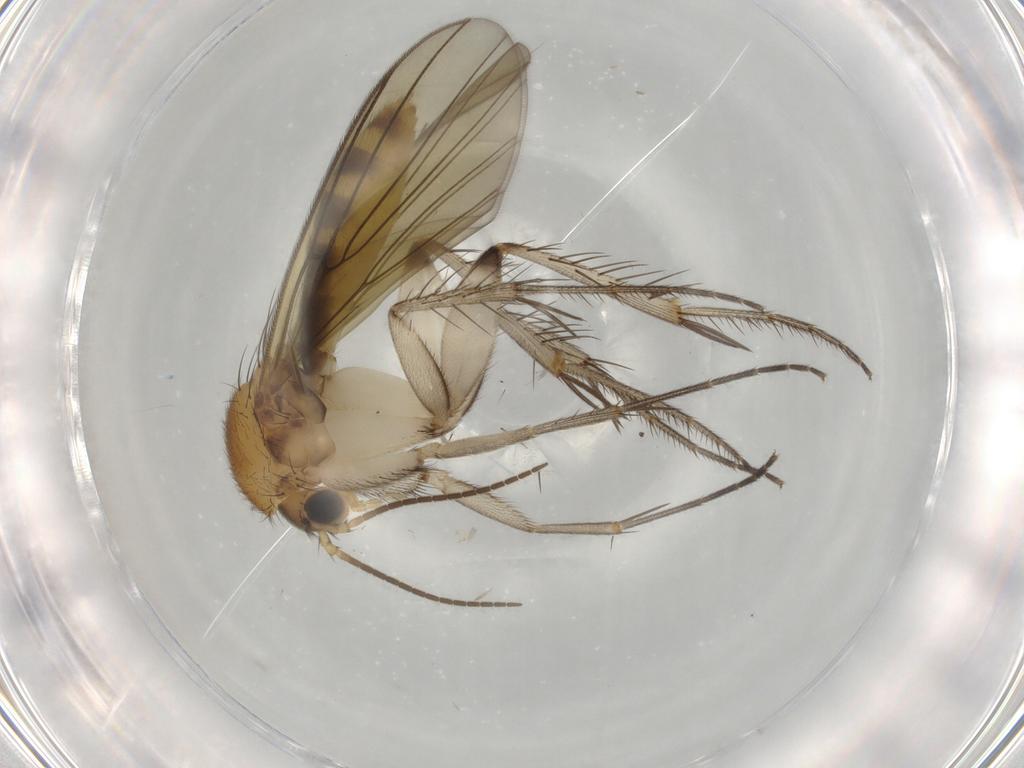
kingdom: Animalia
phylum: Arthropoda
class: Insecta
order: Diptera
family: Mycetophilidae
